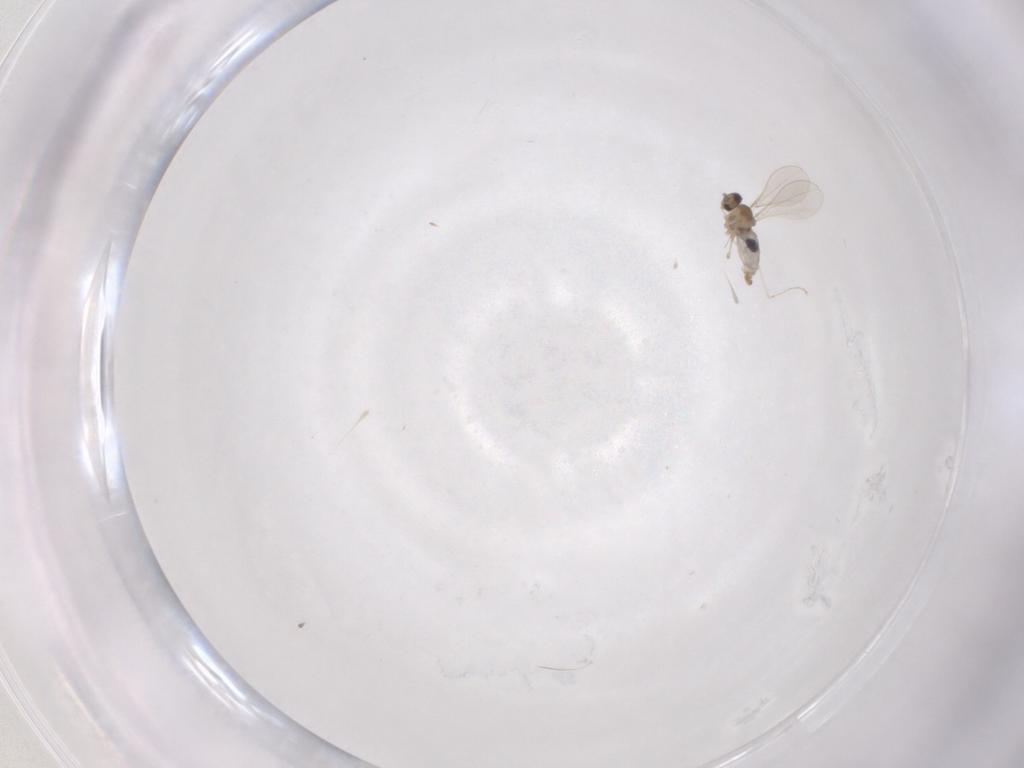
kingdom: Animalia
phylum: Arthropoda
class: Insecta
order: Diptera
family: Cecidomyiidae
